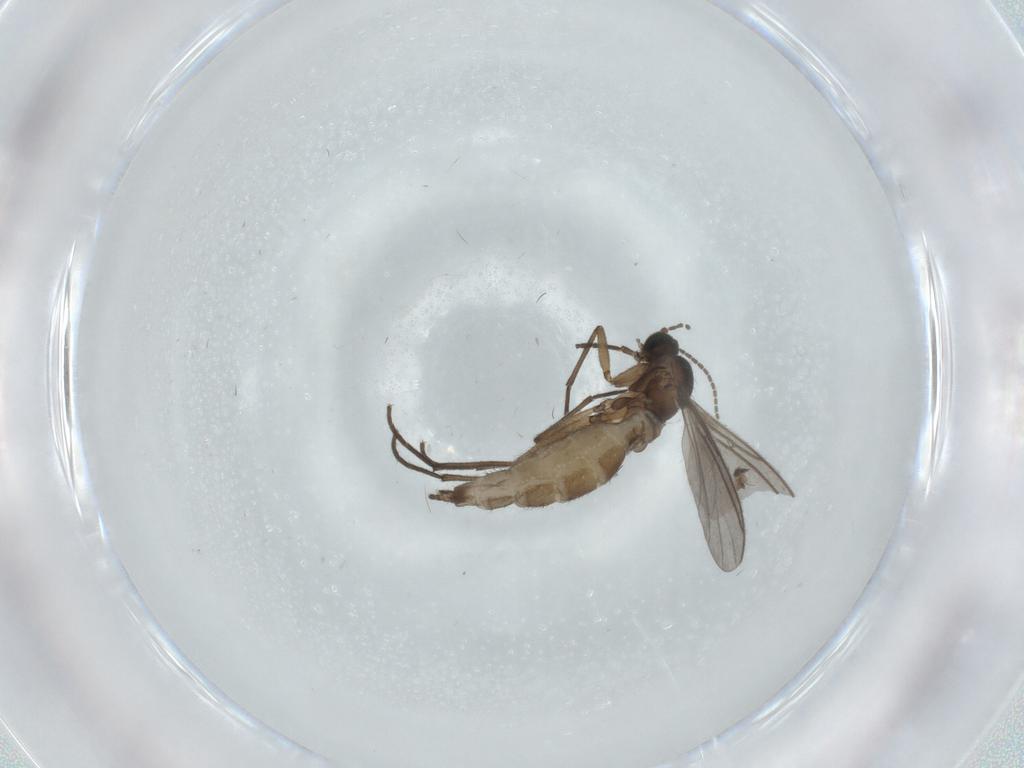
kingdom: Animalia
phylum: Arthropoda
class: Insecta
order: Diptera
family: Sciaridae
